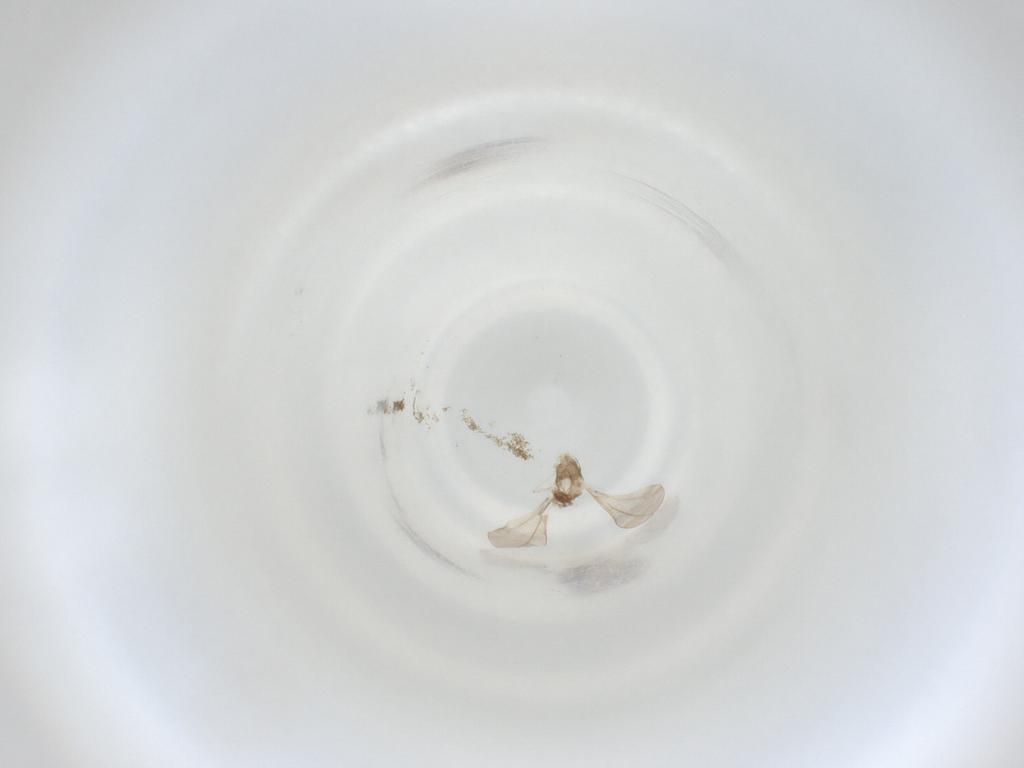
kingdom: Animalia
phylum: Arthropoda
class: Insecta
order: Diptera
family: Cecidomyiidae
